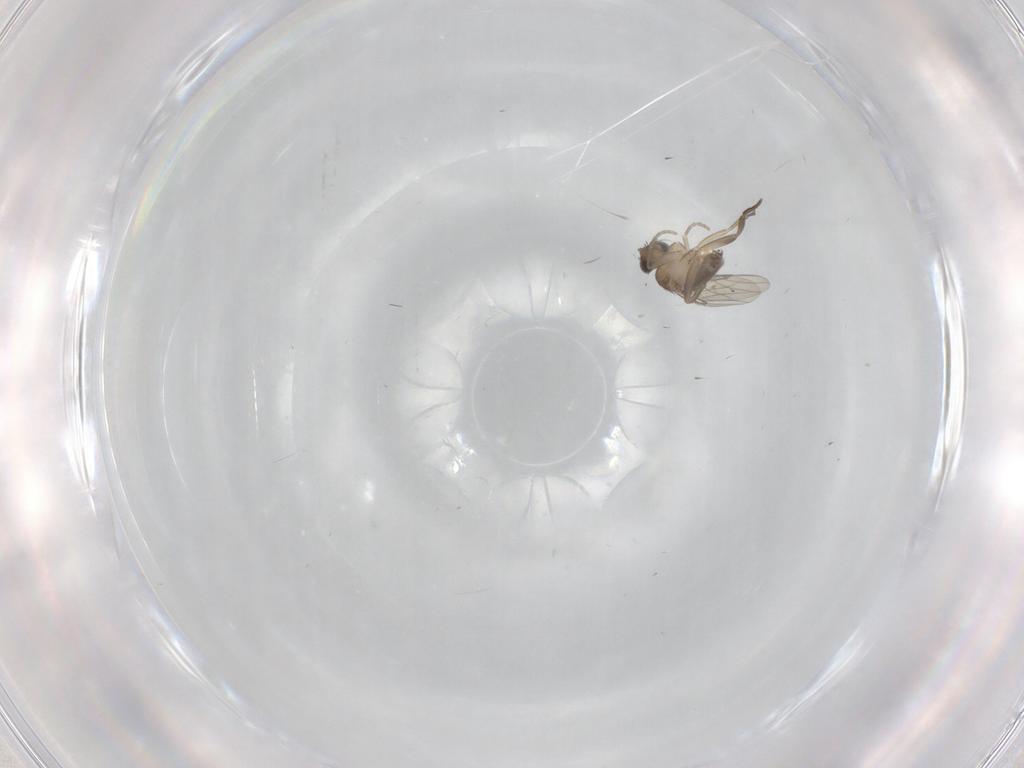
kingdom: Animalia
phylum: Arthropoda
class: Insecta
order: Diptera
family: Phoridae
